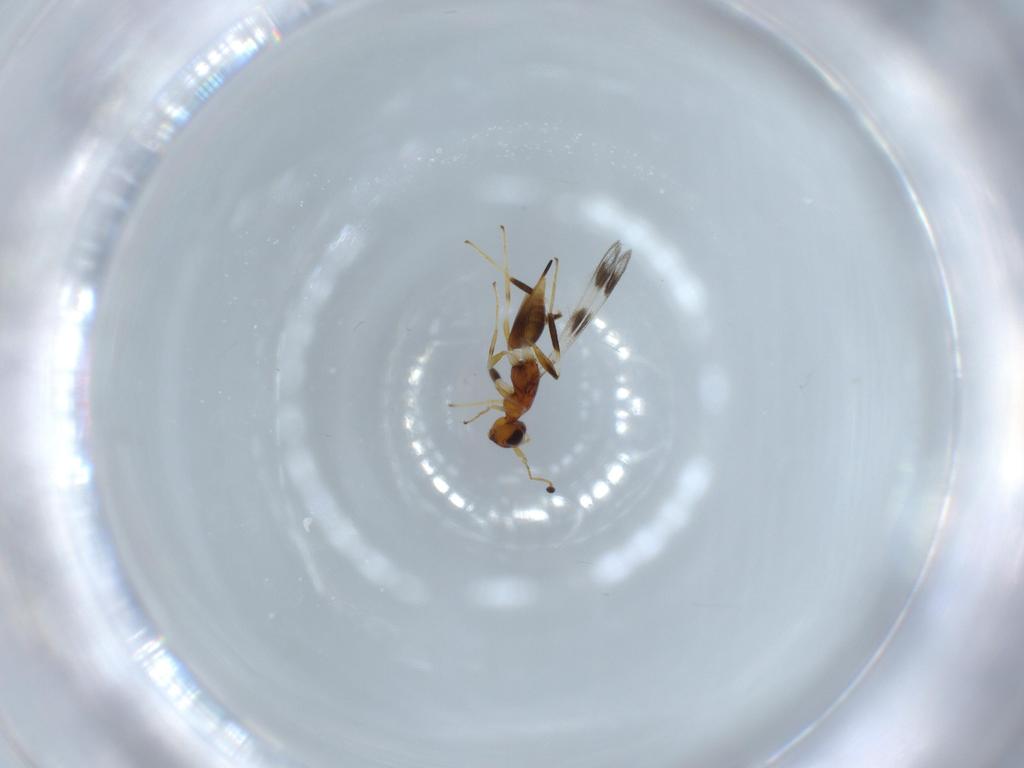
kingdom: Animalia
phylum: Arthropoda
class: Insecta
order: Hymenoptera
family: Mymaridae
